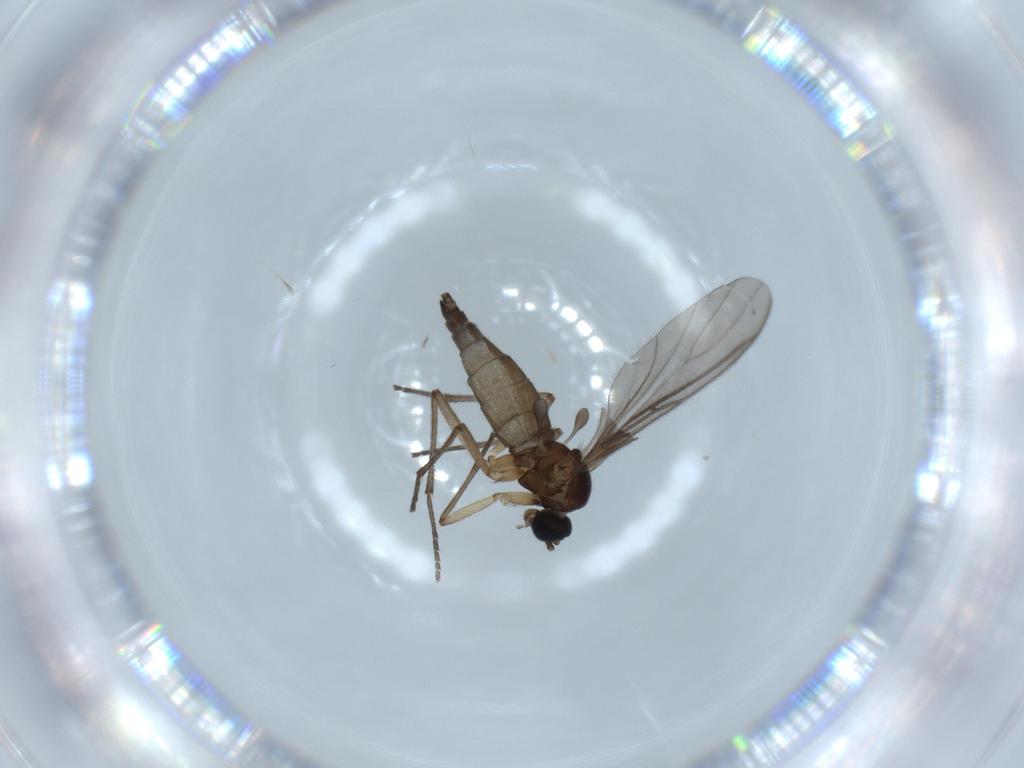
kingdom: Animalia
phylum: Arthropoda
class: Insecta
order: Diptera
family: Sciaridae
